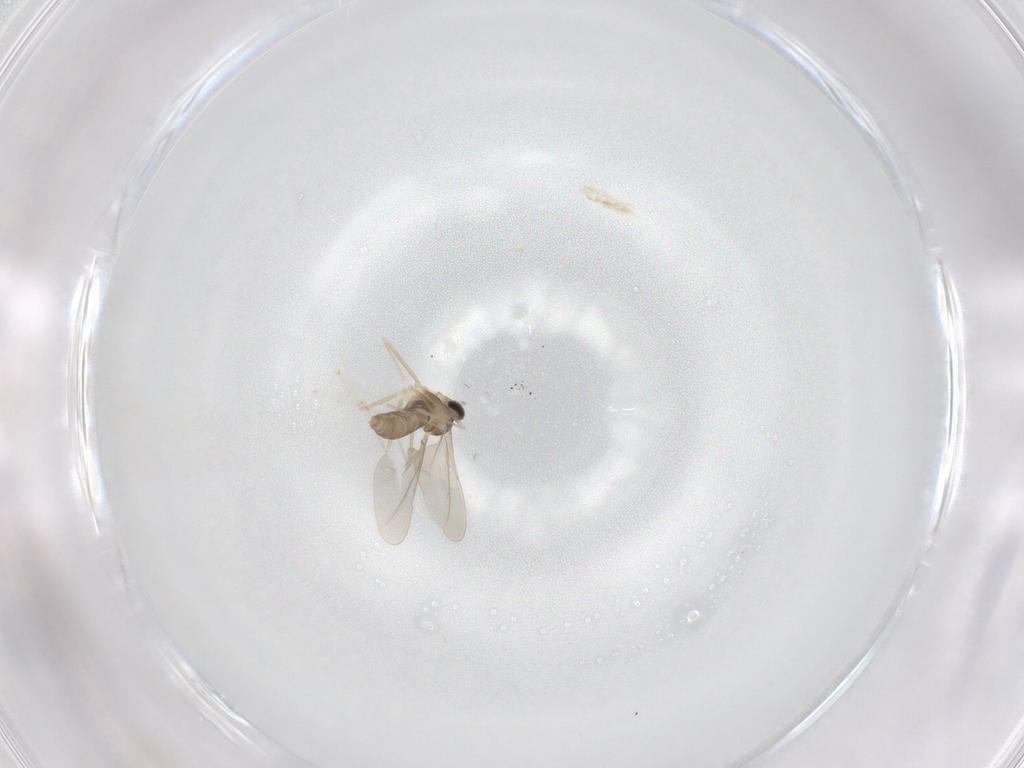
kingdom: Animalia
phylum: Arthropoda
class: Insecta
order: Diptera
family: Cecidomyiidae
